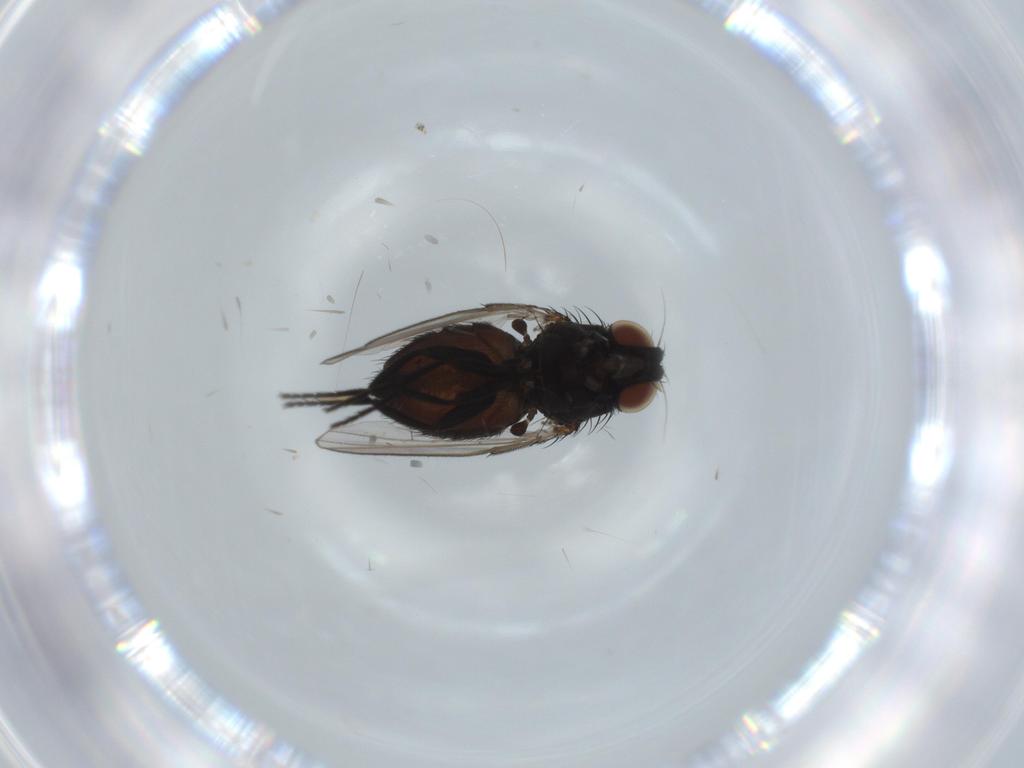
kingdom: Animalia
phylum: Arthropoda
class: Insecta
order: Diptera
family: Milichiidae
